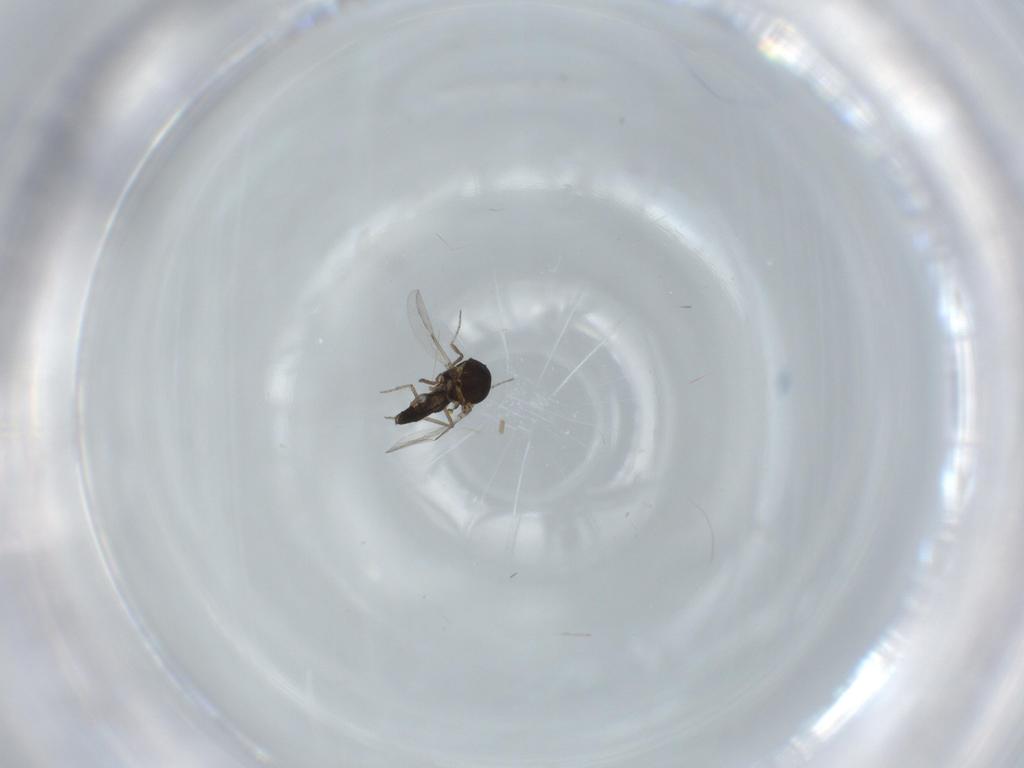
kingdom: Animalia
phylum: Arthropoda
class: Insecta
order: Diptera
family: Ceratopogonidae
